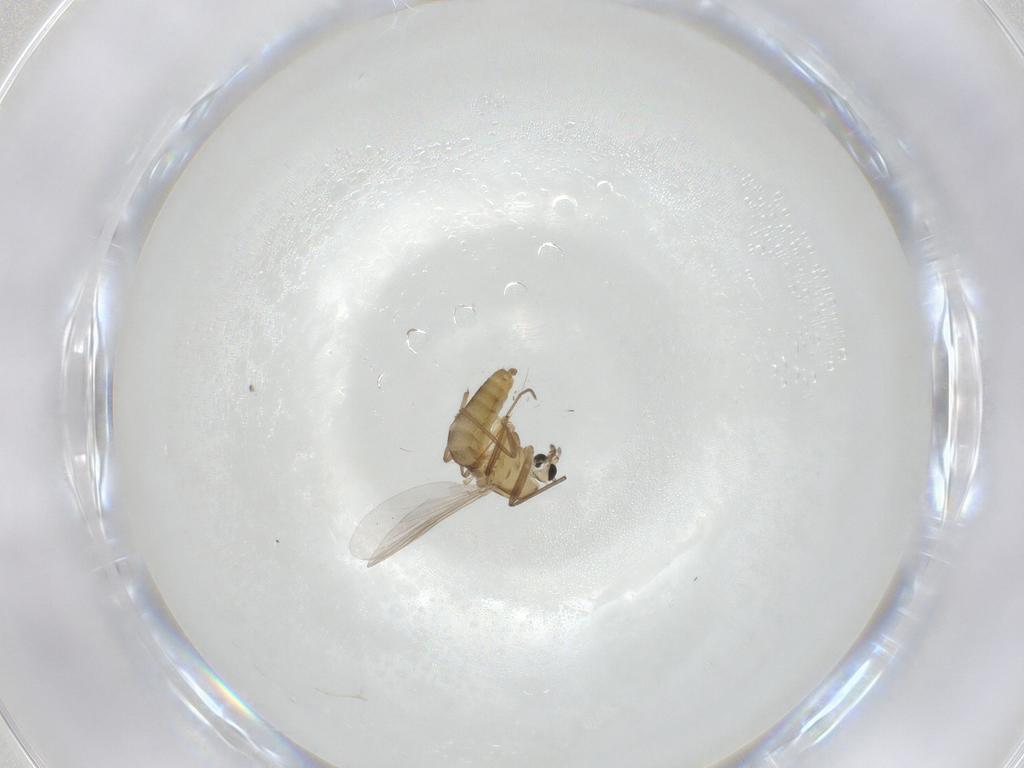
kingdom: Animalia
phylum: Arthropoda
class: Insecta
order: Diptera
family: Chironomidae
